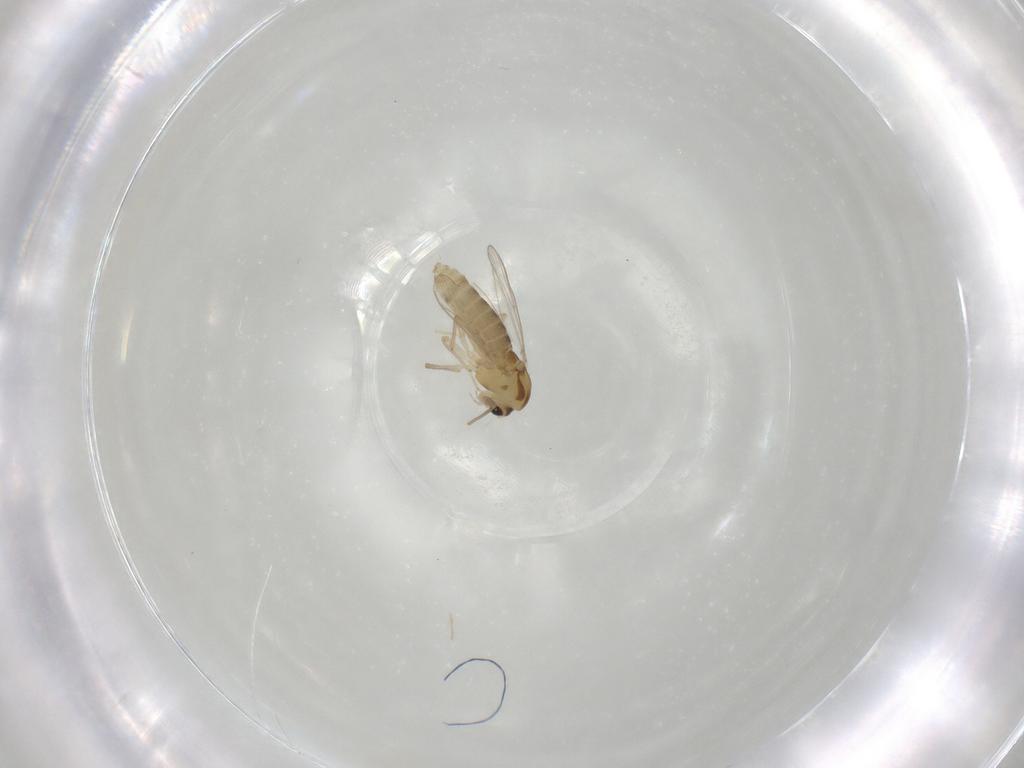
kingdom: Animalia
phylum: Arthropoda
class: Insecta
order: Diptera
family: Chironomidae
